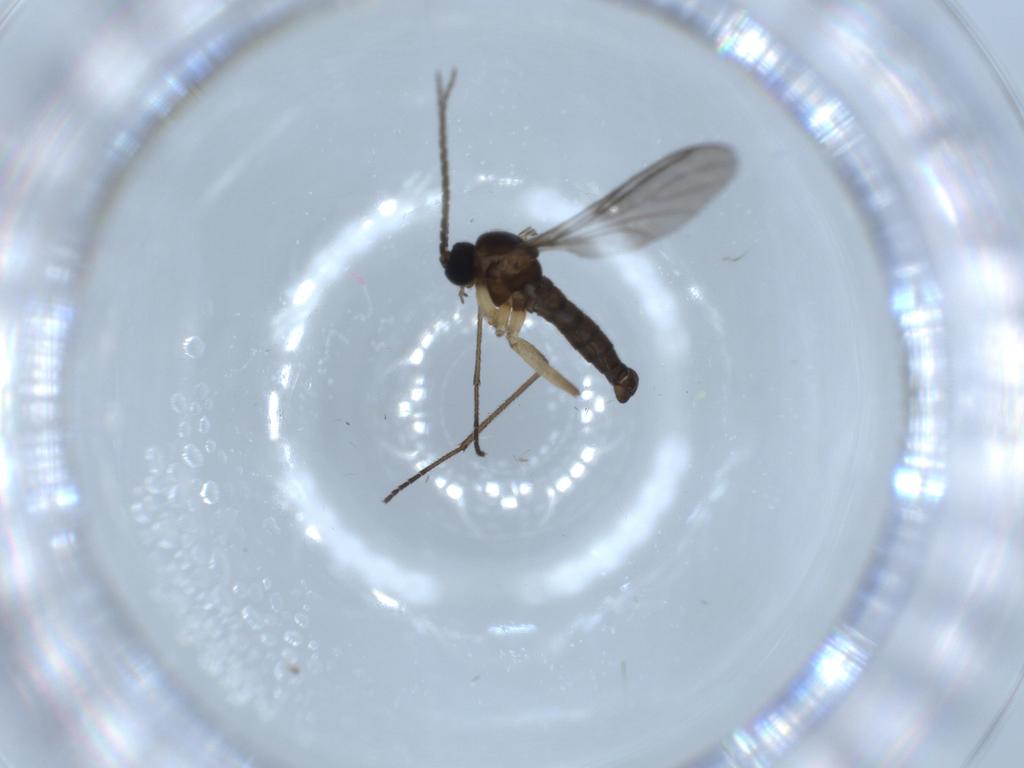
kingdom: Animalia
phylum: Arthropoda
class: Insecta
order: Diptera
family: Sciaridae
